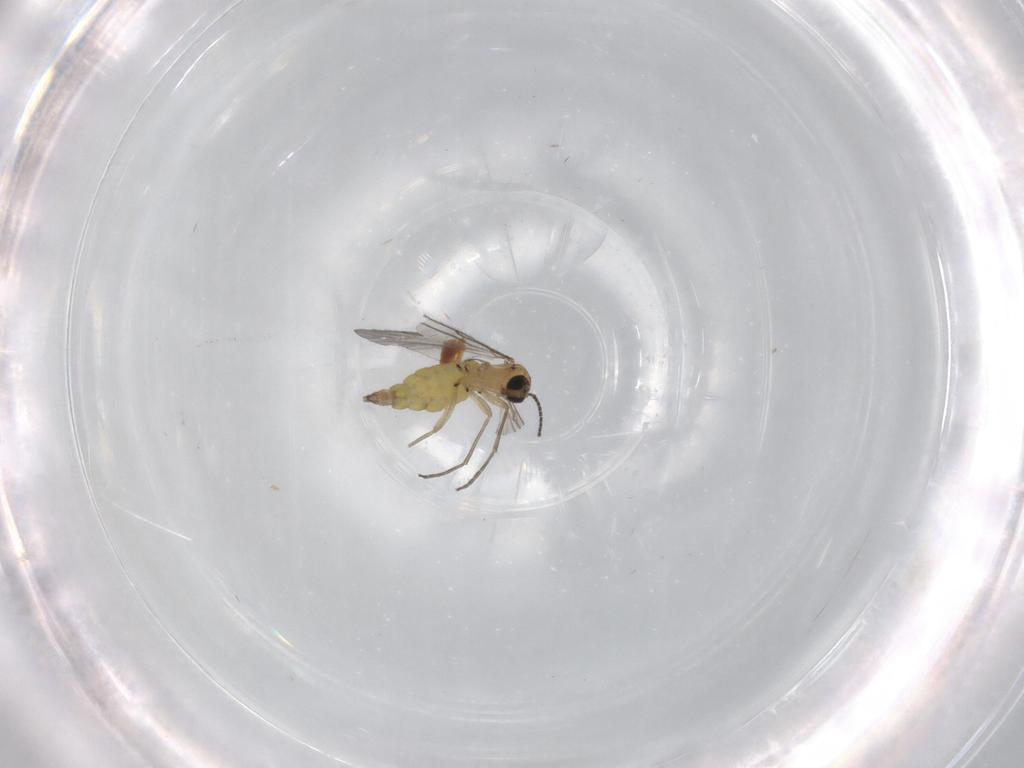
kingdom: Animalia
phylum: Arthropoda
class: Insecta
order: Diptera
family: Sciaridae
